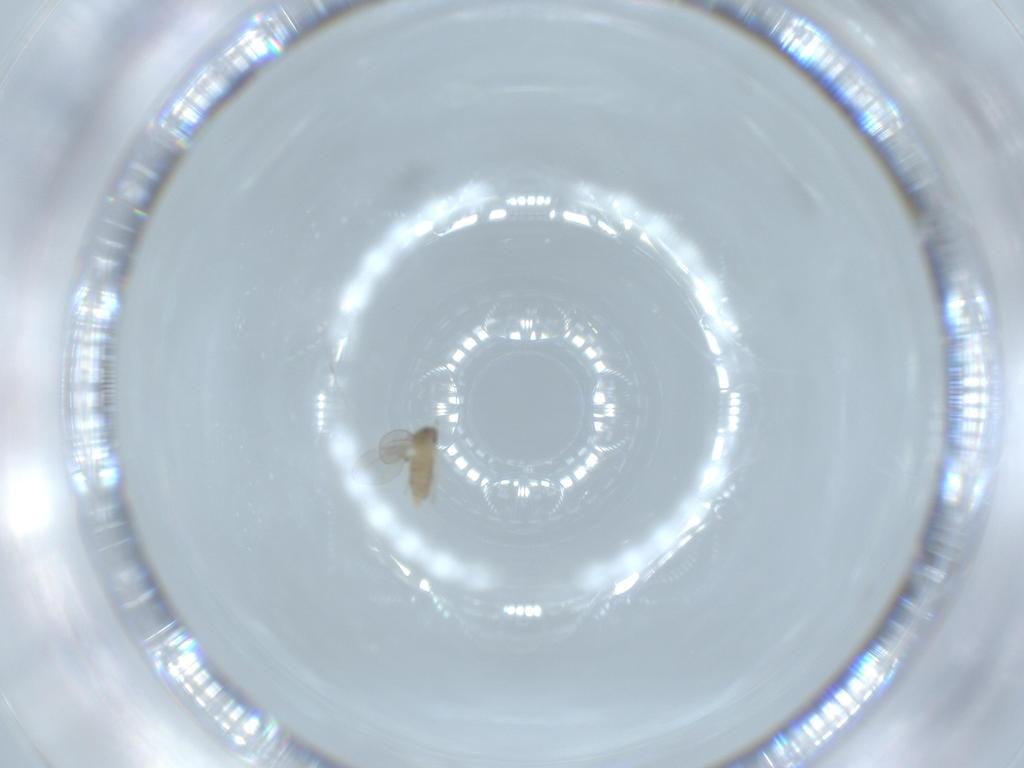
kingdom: Animalia
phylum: Arthropoda
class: Insecta
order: Diptera
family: Cecidomyiidae
